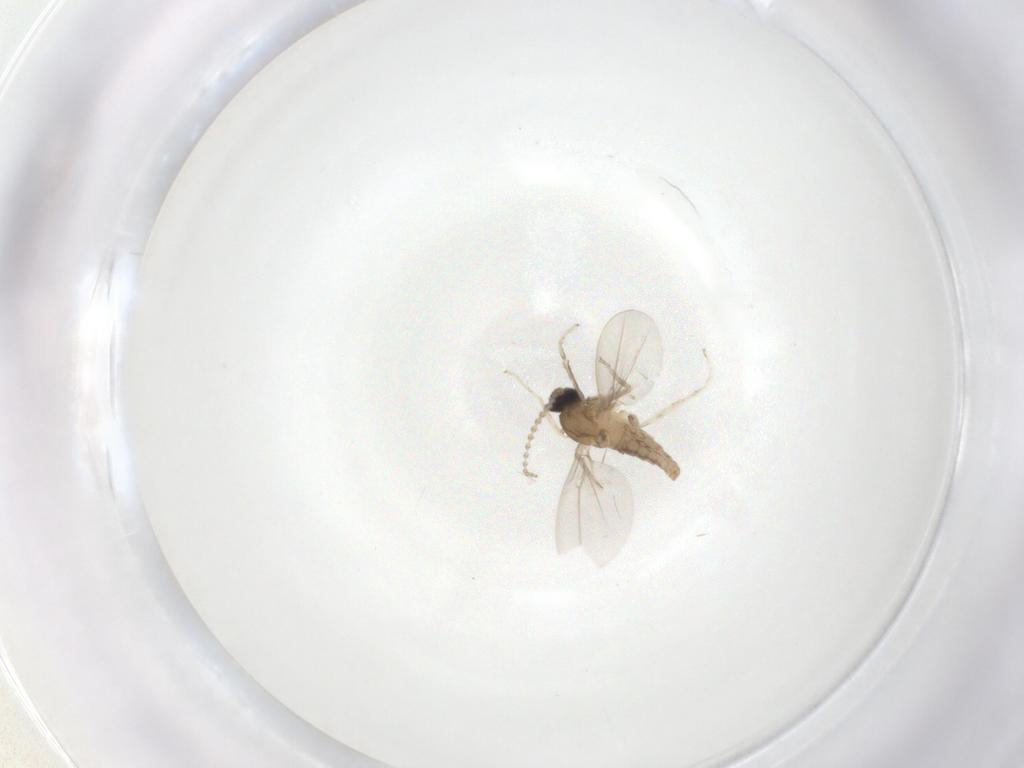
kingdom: Animalia
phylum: Arthropoda
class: Insecta
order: Diptera
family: Cecidomyiidae
